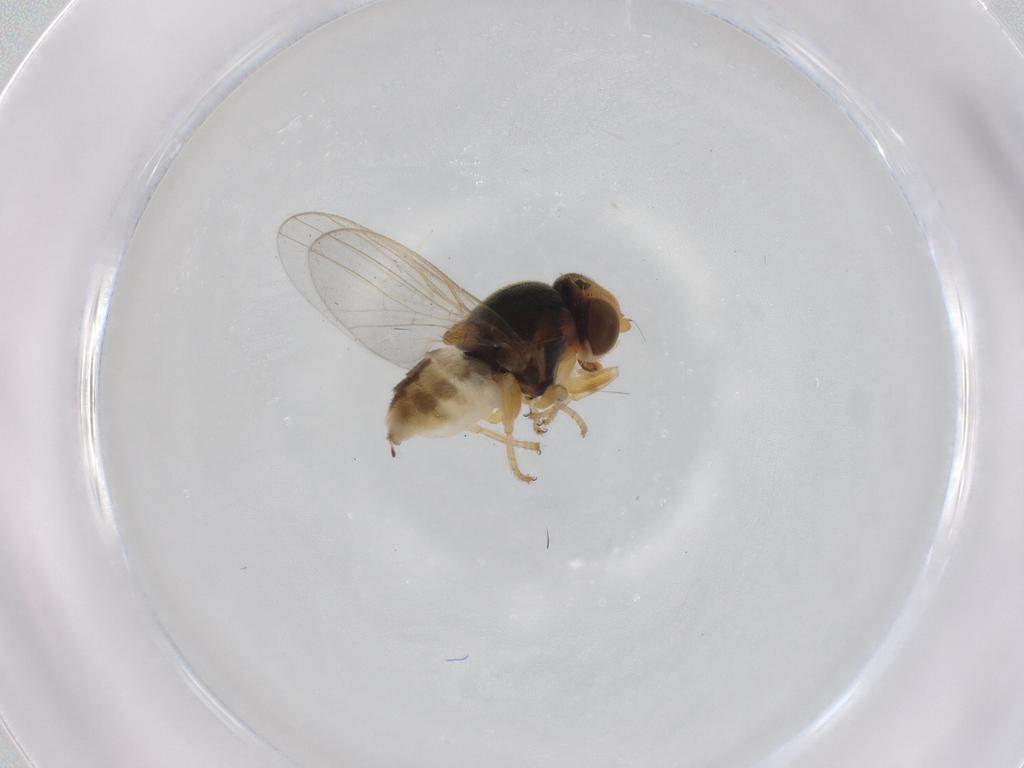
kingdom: Animalia
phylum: Arthropoda
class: Insecta
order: Diptera
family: Chloropidae
